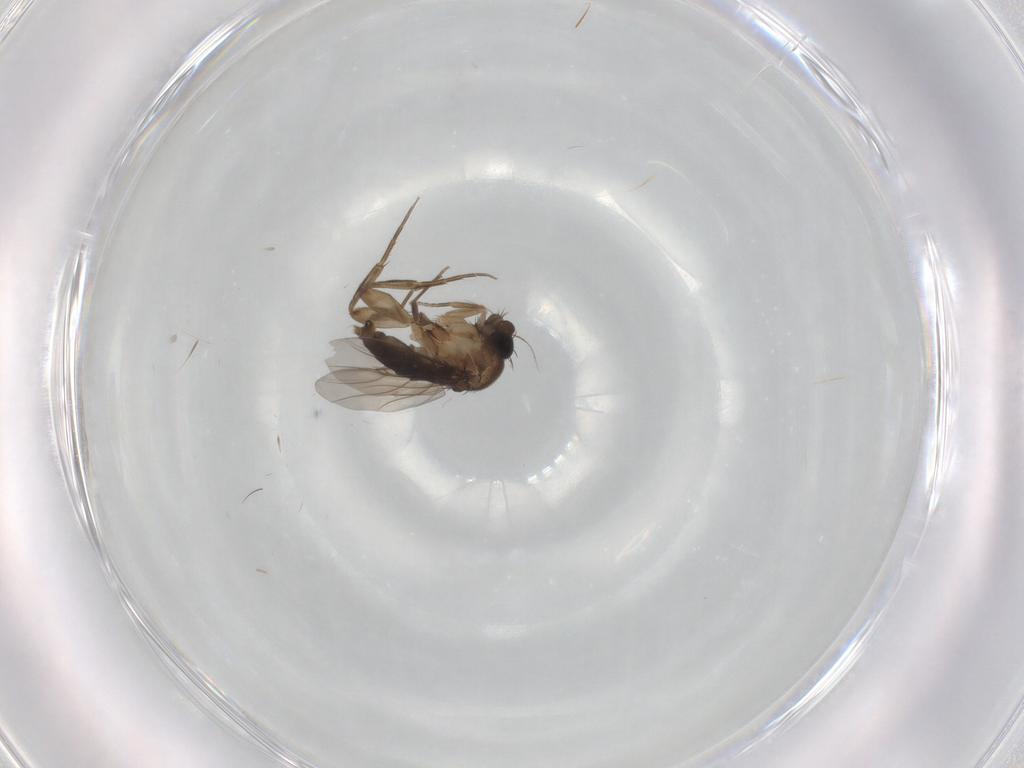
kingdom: Animalia
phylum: Arthropoda
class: Insecta
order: Diptera
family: Phoridae
